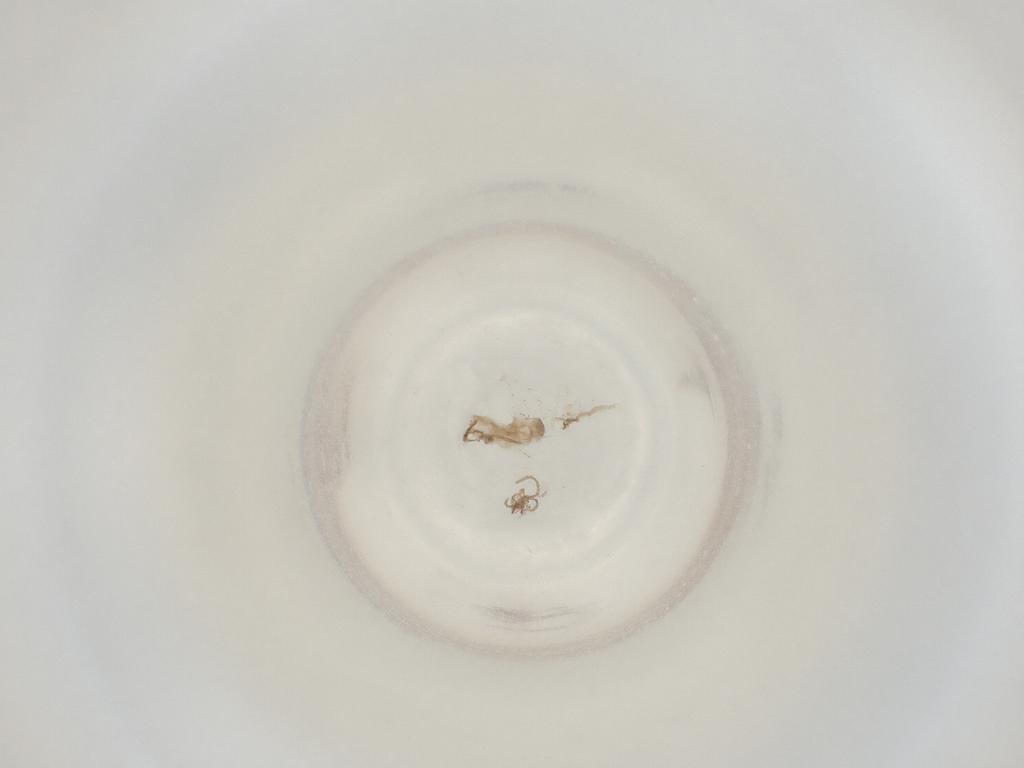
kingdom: Animalia
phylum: Arthropoda
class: Insecta
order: Diptera
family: Cecidomyiidae
